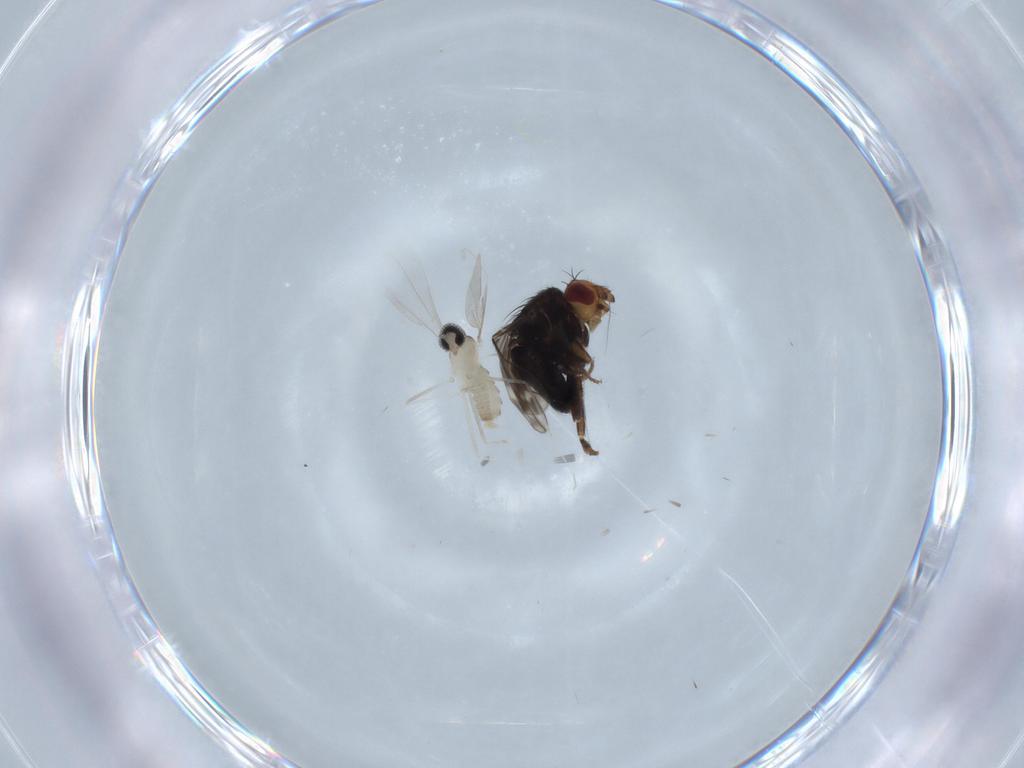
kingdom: Animalia
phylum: Arthropoda
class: Insecta
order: Diptera
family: Cecidomyiidae
